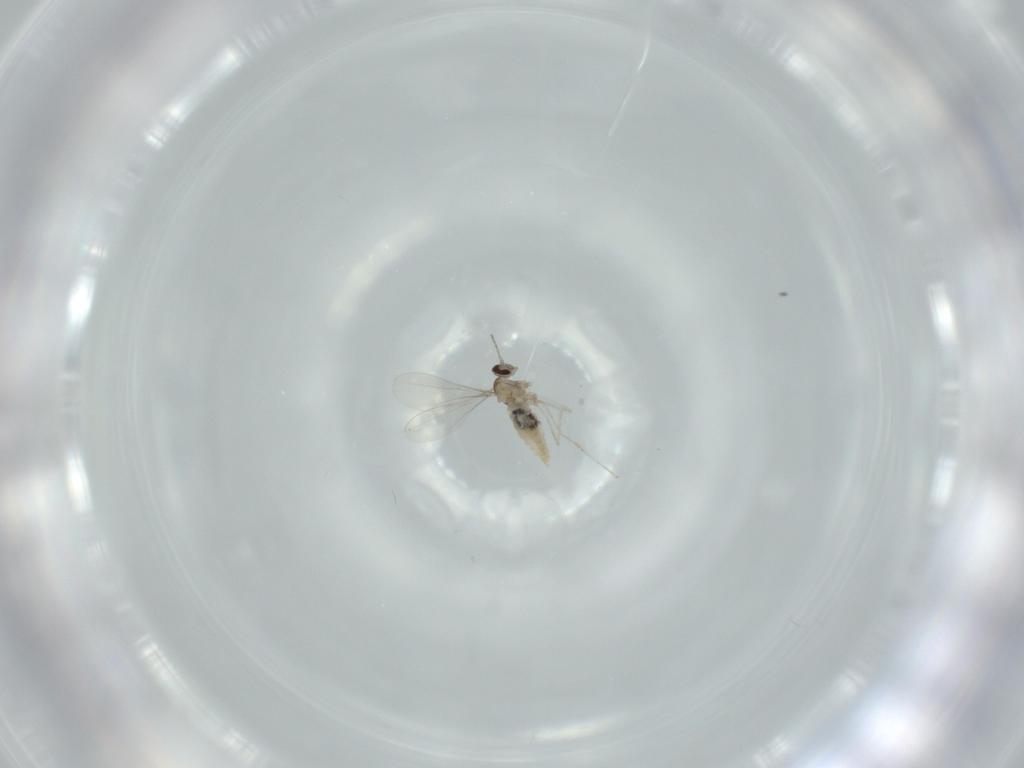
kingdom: Animalia
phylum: Arthropoda
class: Insecta
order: Diptera
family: Cecidomyiidae
